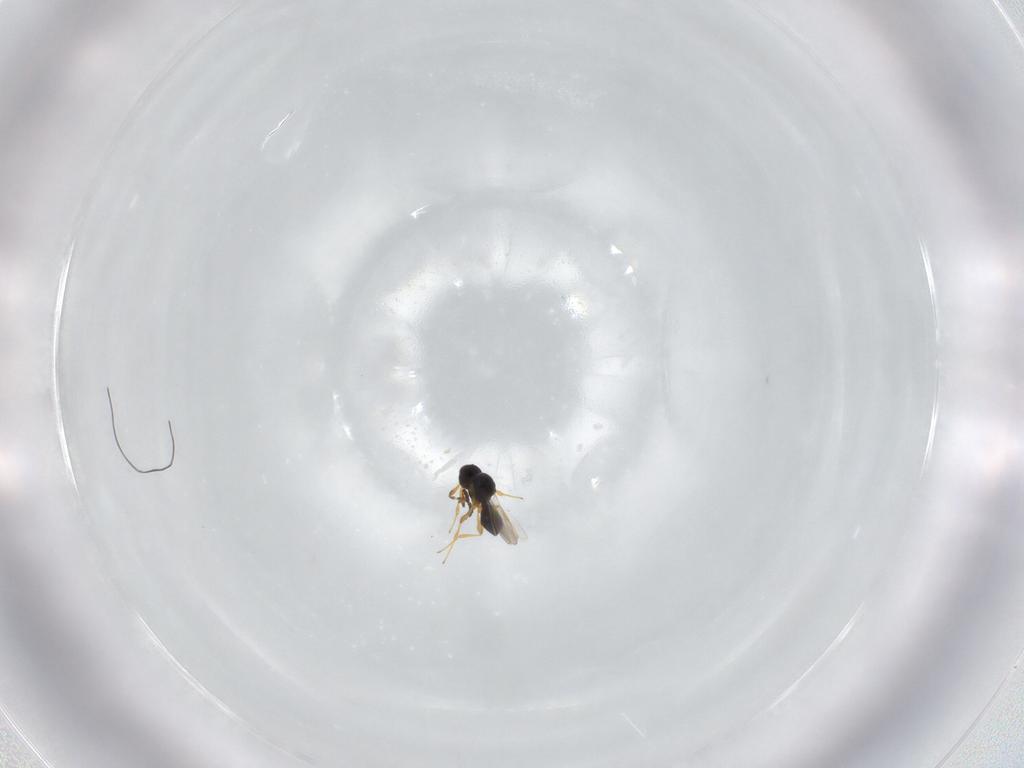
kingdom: Animalia
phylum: Arthropoda
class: Insecta
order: Hymenoptera
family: Platygastridae
